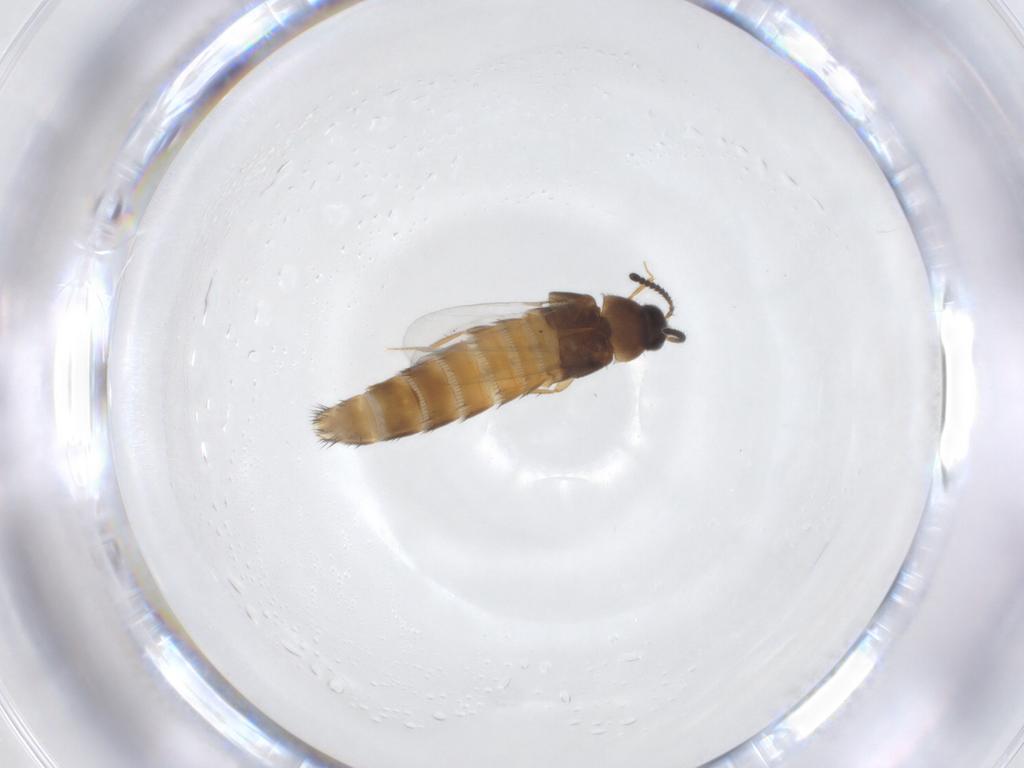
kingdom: Animalia
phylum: Arthropoda
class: Insecta
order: Coleoptera
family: Staphylinidae
